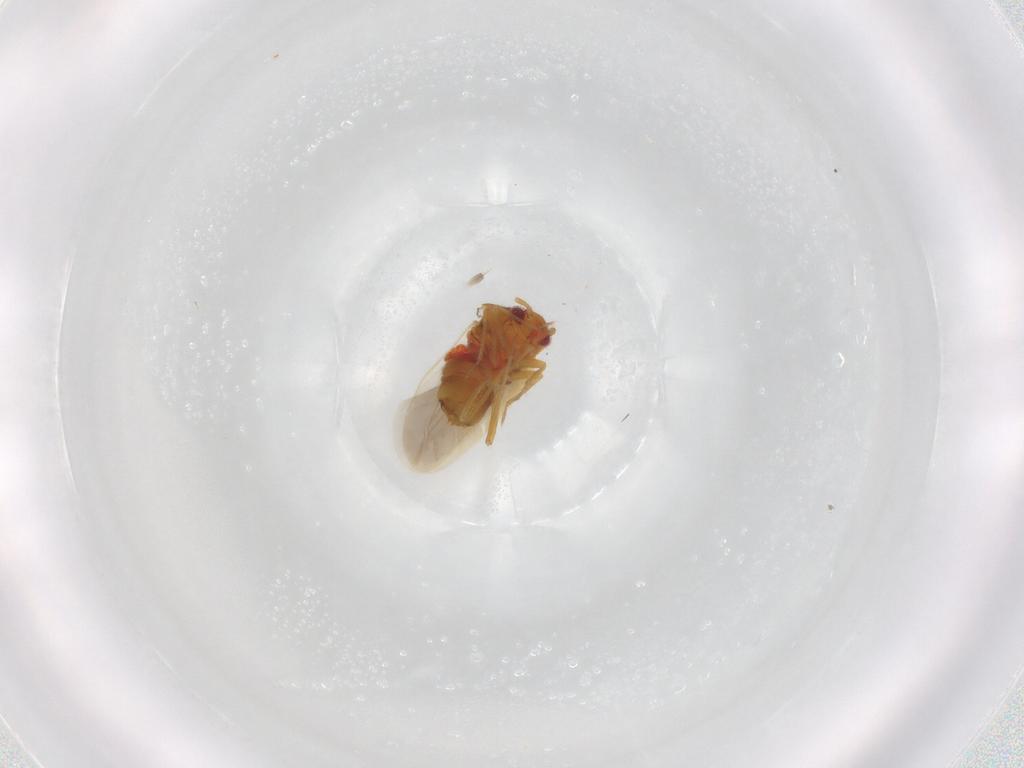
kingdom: Animalia
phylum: Arthropoda
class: Insecta
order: Hemiptera
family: Ceratocombidae
